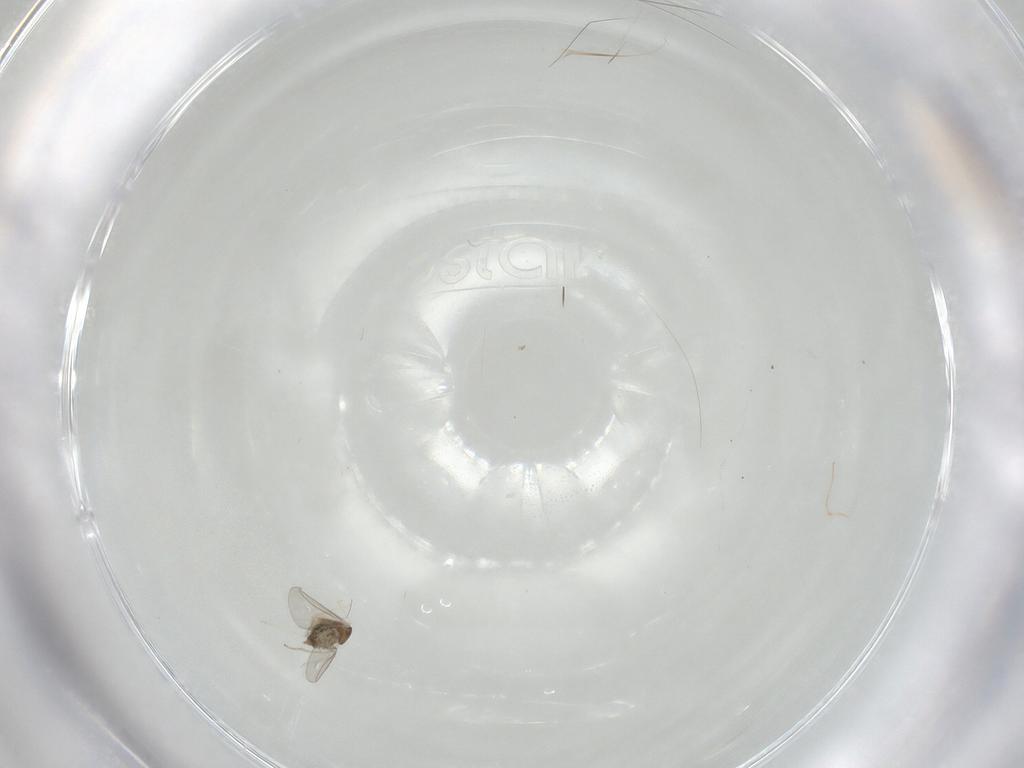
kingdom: Animalia
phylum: Arthropoda
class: Insecta
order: Diptera
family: Cecidomyiidae
